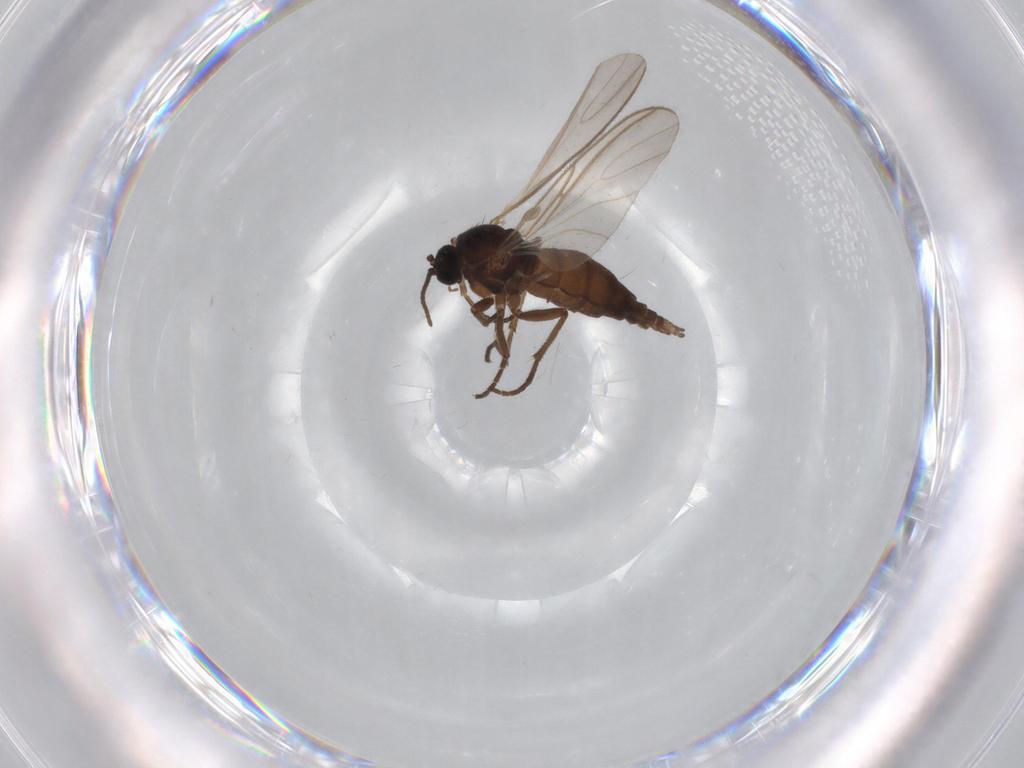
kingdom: Animalia
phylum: Arthropoda
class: Insecta
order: Diptera
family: Sciaridae
